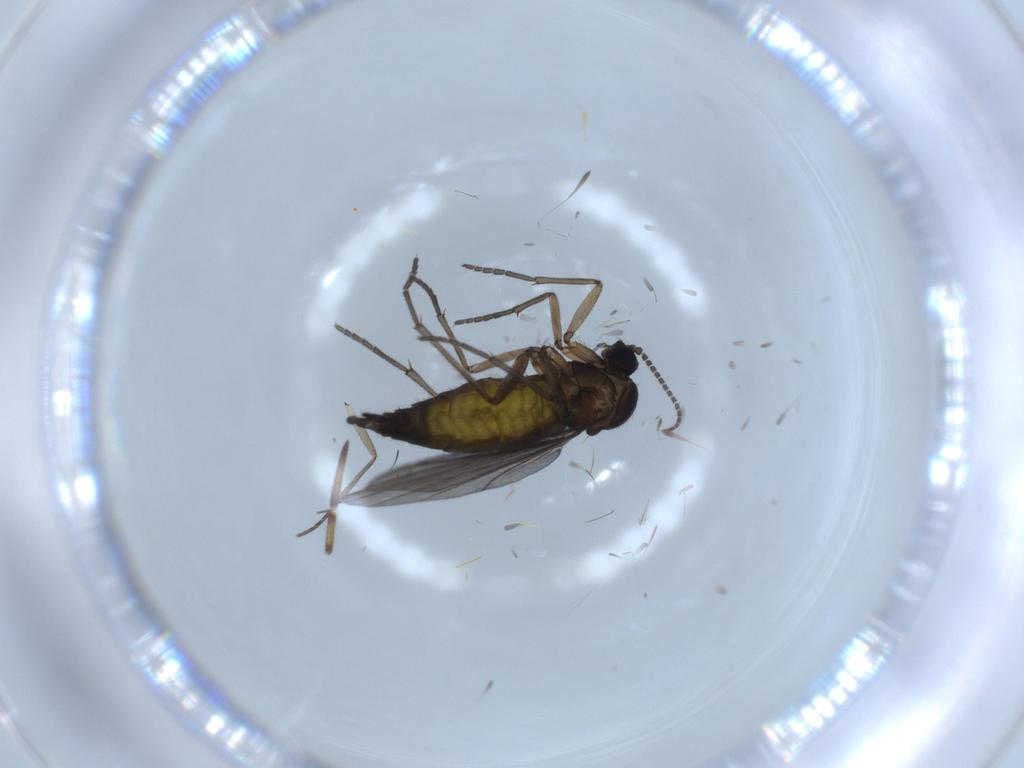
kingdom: Animalia
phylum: Arthropoda
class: Insecta
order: Diptera
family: Sciaridae
